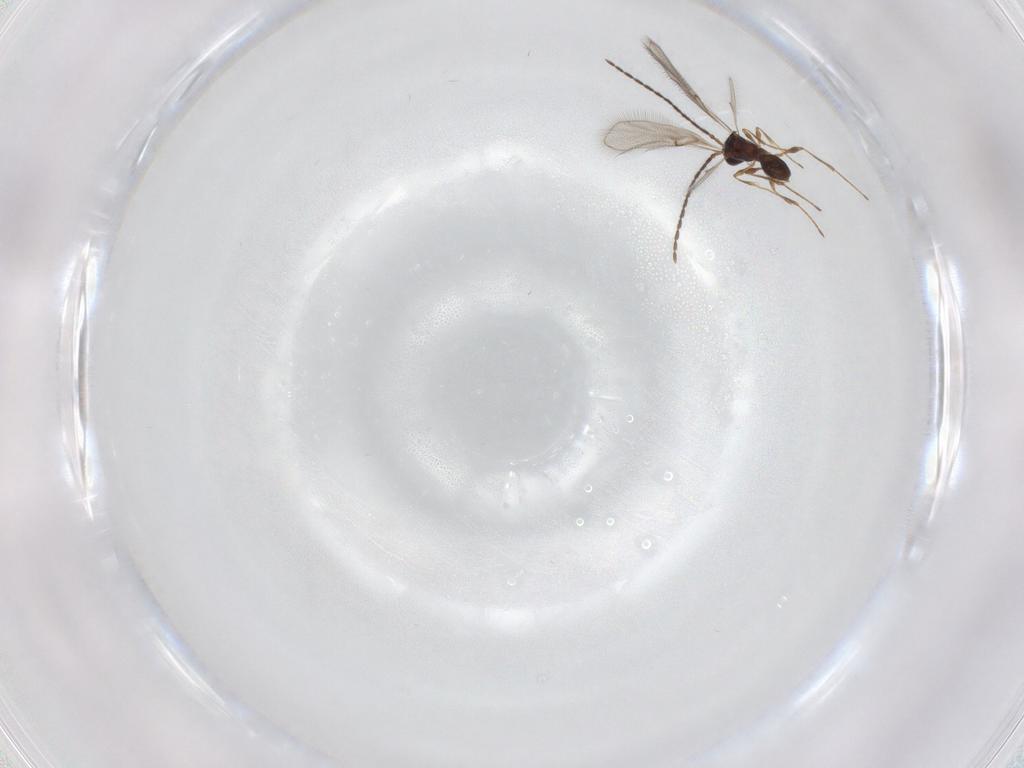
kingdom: Animalia
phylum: Arthropoda
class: Insecta
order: Hymenoptera
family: Diapriidae
